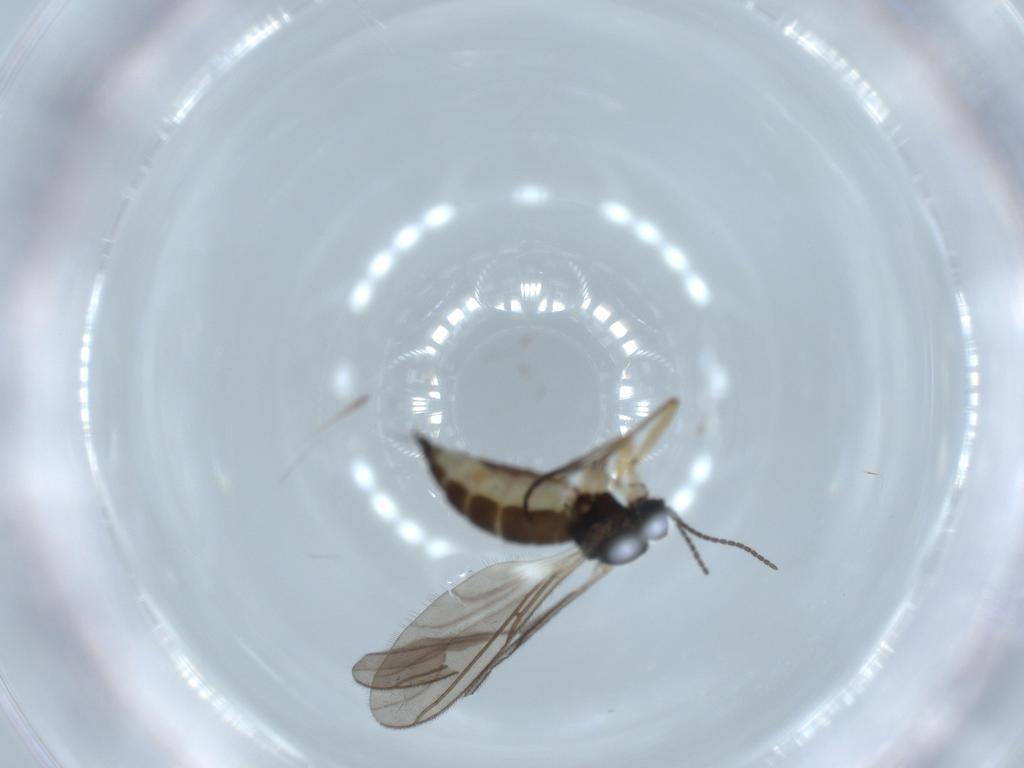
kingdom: Animalia
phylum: Arthropoda
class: Insecta
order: Diptera
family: Sciaridae
